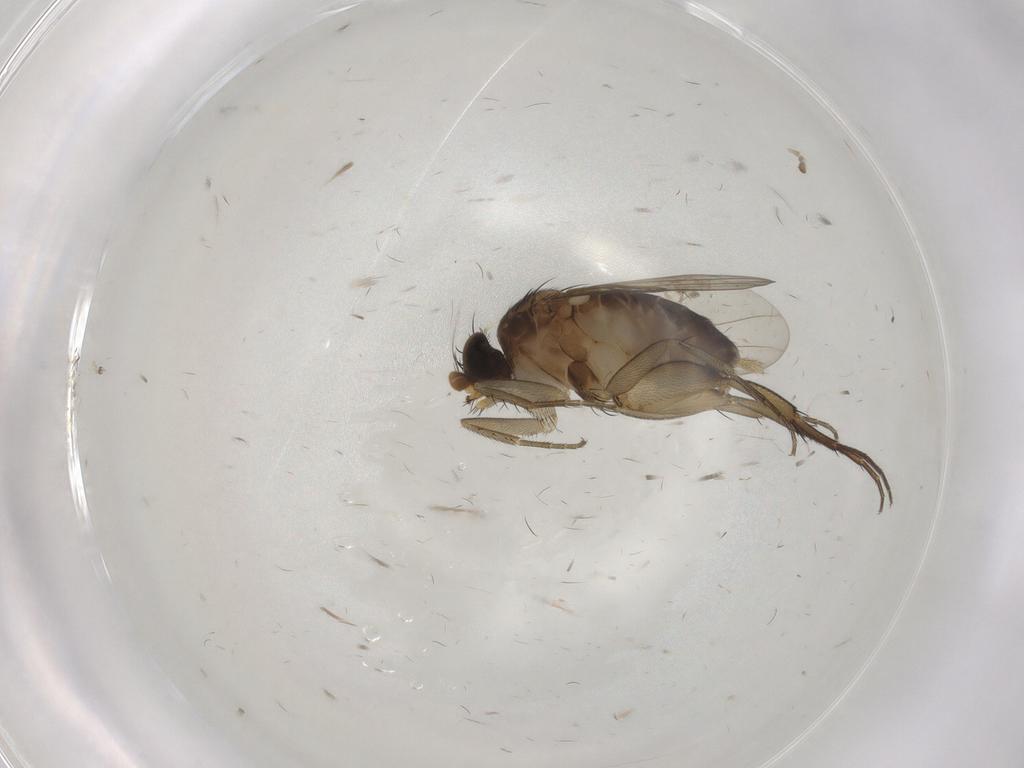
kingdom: Animalia
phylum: Arthropoda
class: Insecta
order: Diptera
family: Phoridae
